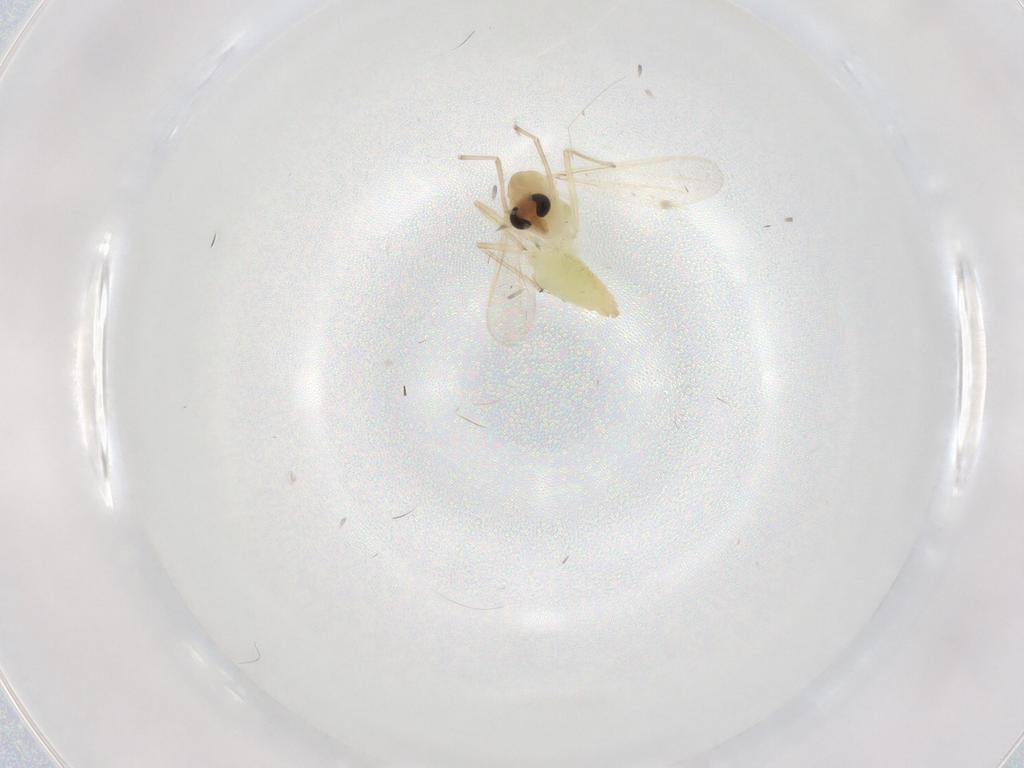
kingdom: Animalia
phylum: Arthropoda
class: Insecta
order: Diptera
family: Chironomidae
